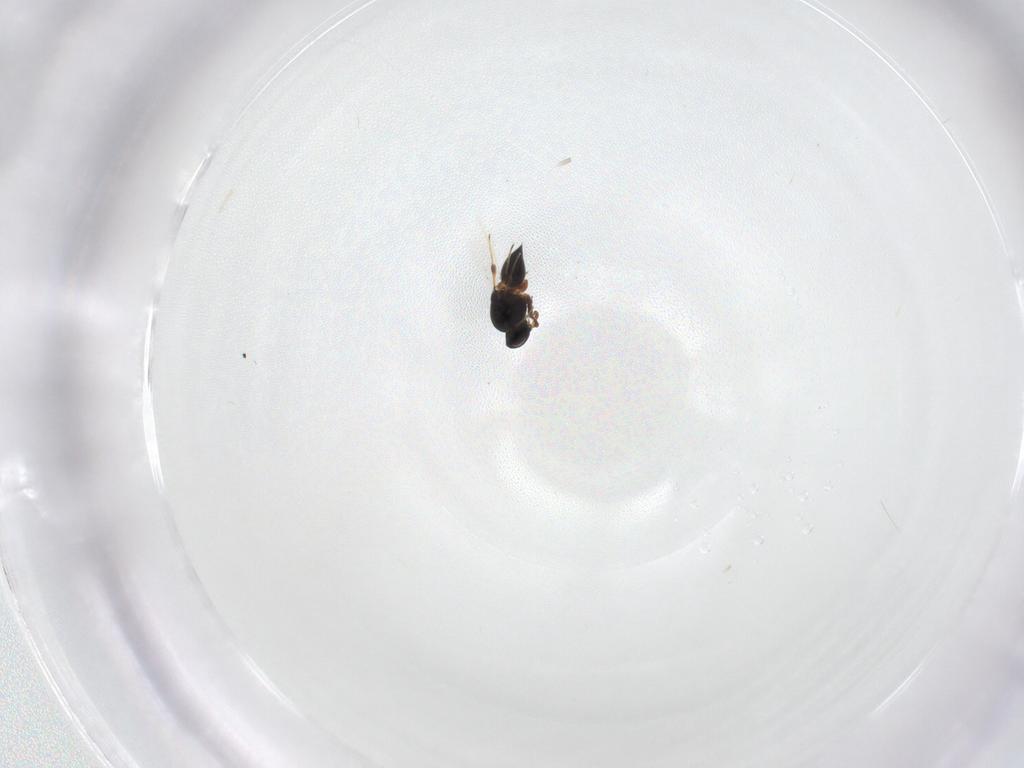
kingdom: Animalia
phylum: Arthropoda
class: Insecta
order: Hymenoptera
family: Platygastridae
